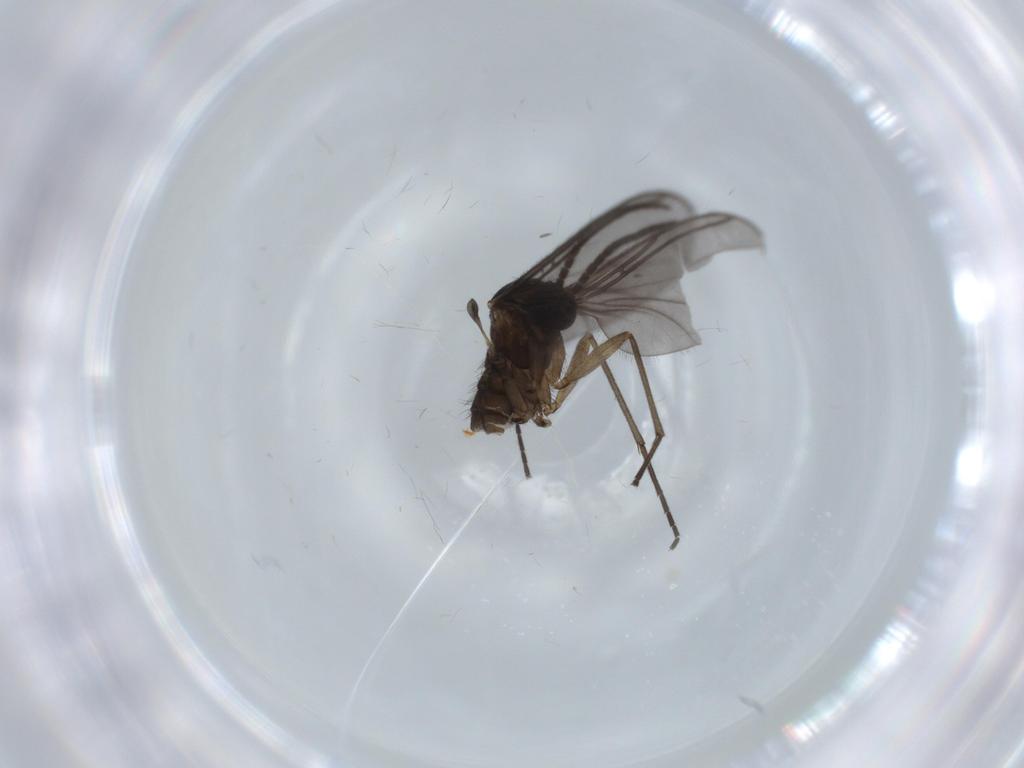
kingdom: Animalia
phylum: Arthropoda
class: Insecta
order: Diptera
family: Sciaridae
